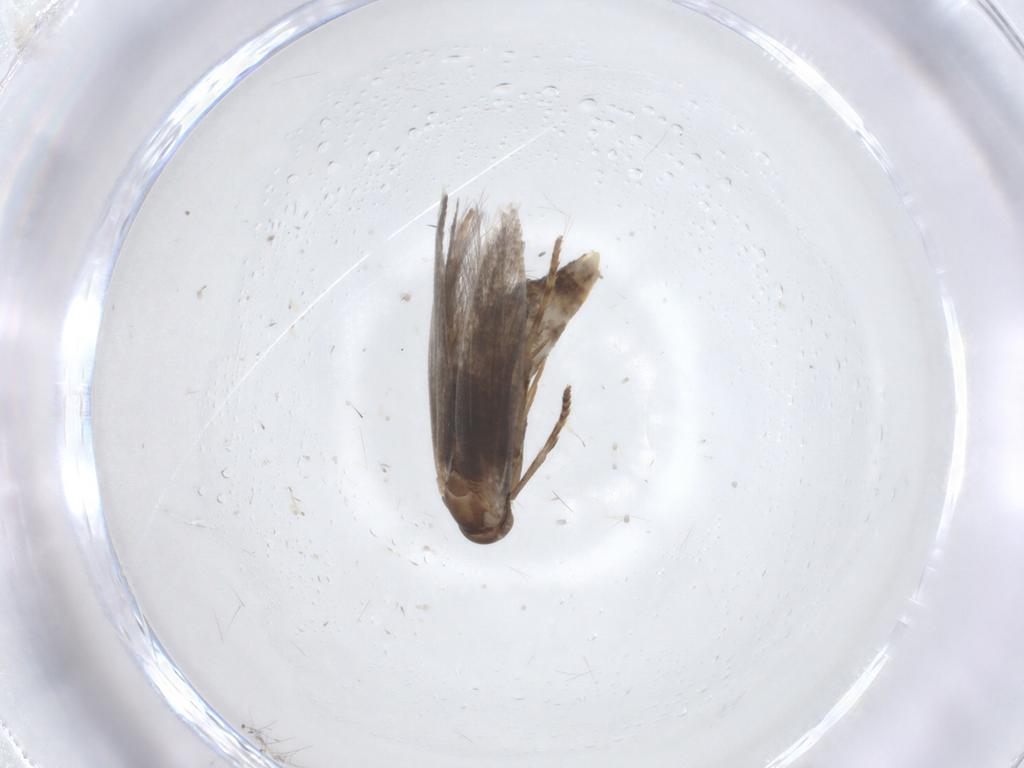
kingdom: Animalia
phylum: Arthropoda
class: Insecta
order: Lepidoptera
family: Elachistidae
